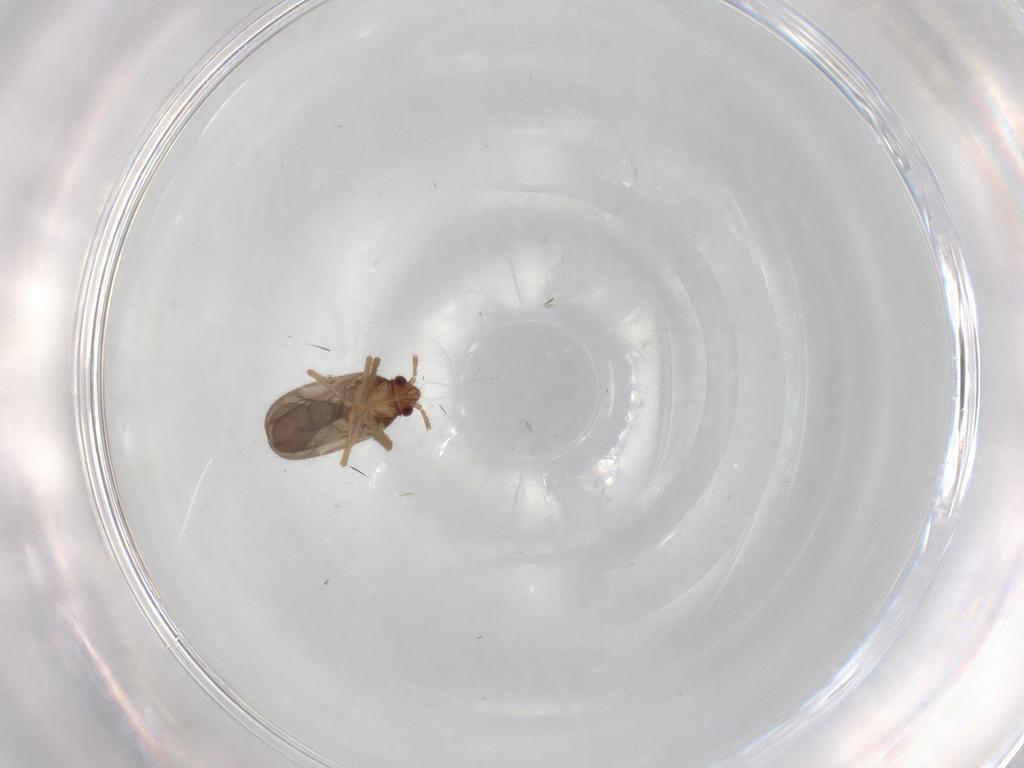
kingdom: Animalia
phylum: Arthropoda
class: Insecta
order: Hemiptera
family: Ceratocombidae
